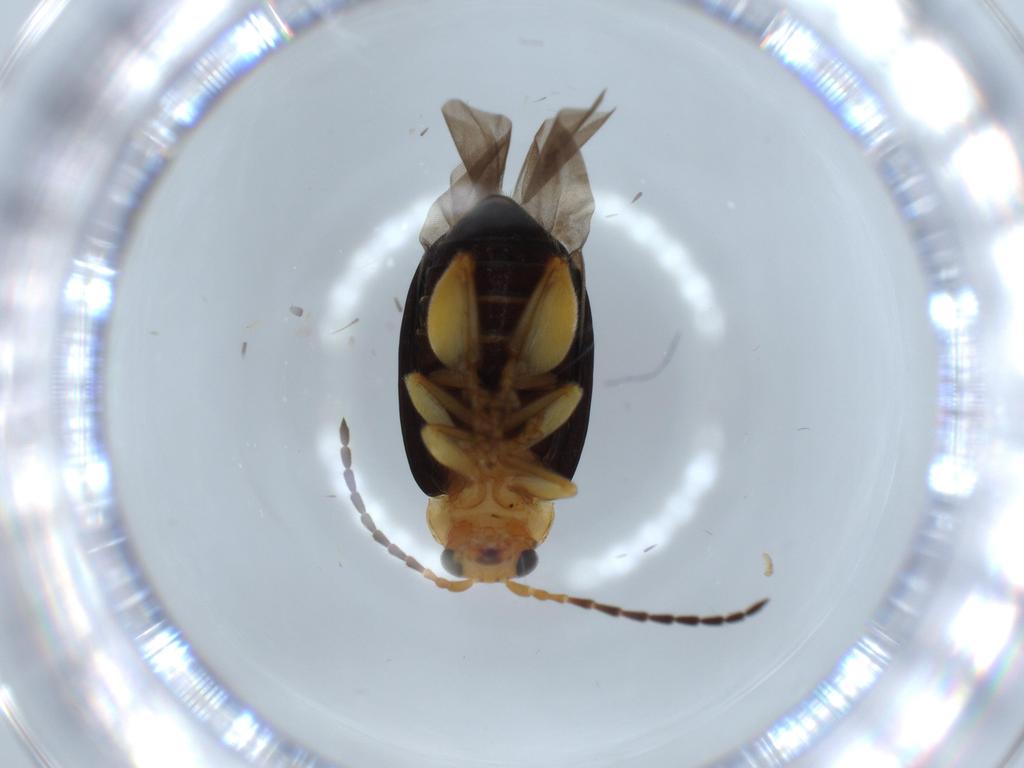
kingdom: Animalia
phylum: Arthropoda
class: Insecta
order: Coleoptera
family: Chrysomelidae
